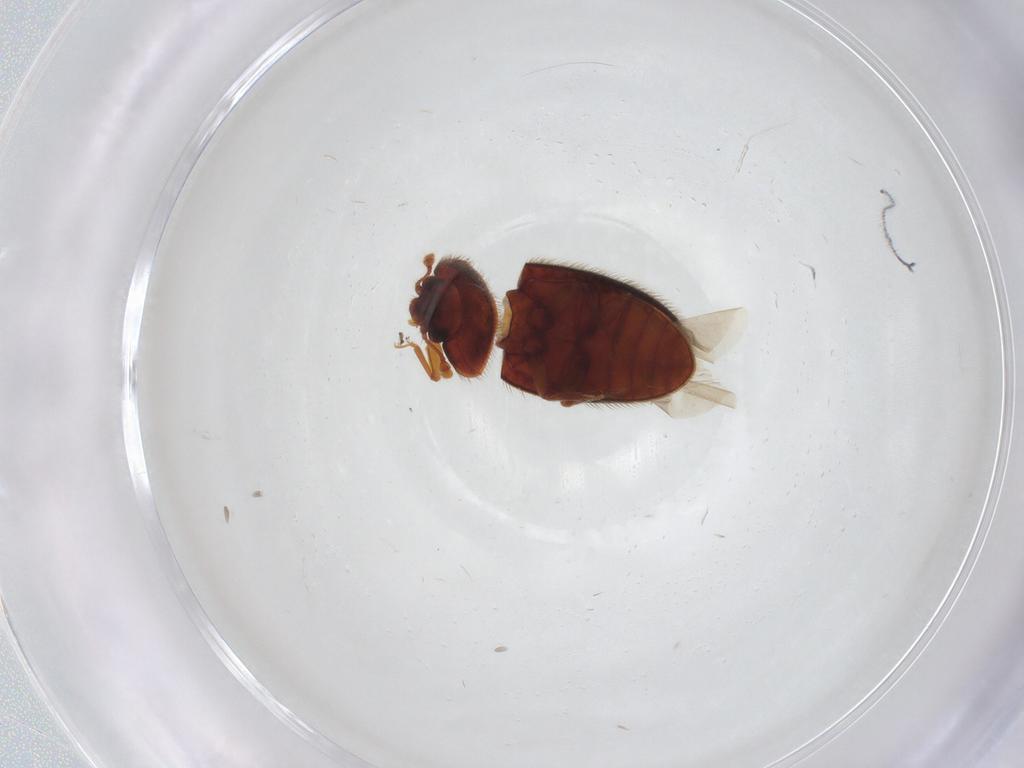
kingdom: Animalia
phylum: Arthropoda
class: Insecta
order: Coleoptera
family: Biphyllidae
